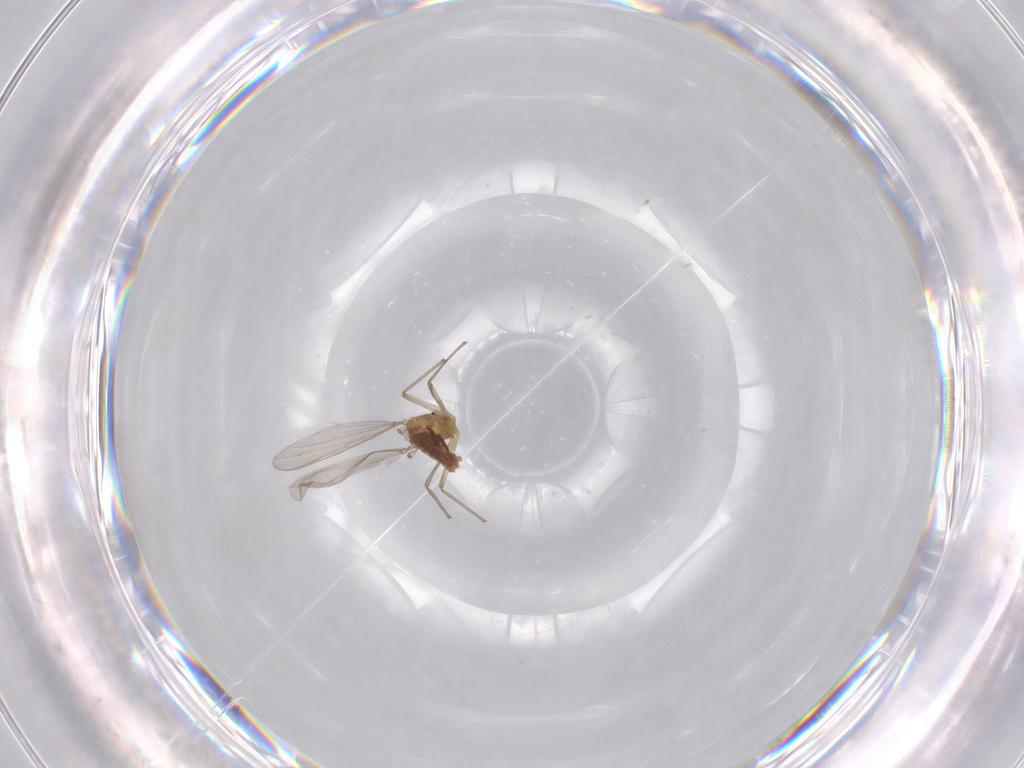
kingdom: Animalia
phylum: Arthropoda
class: Insecta
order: Diptera
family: Chironomidae
